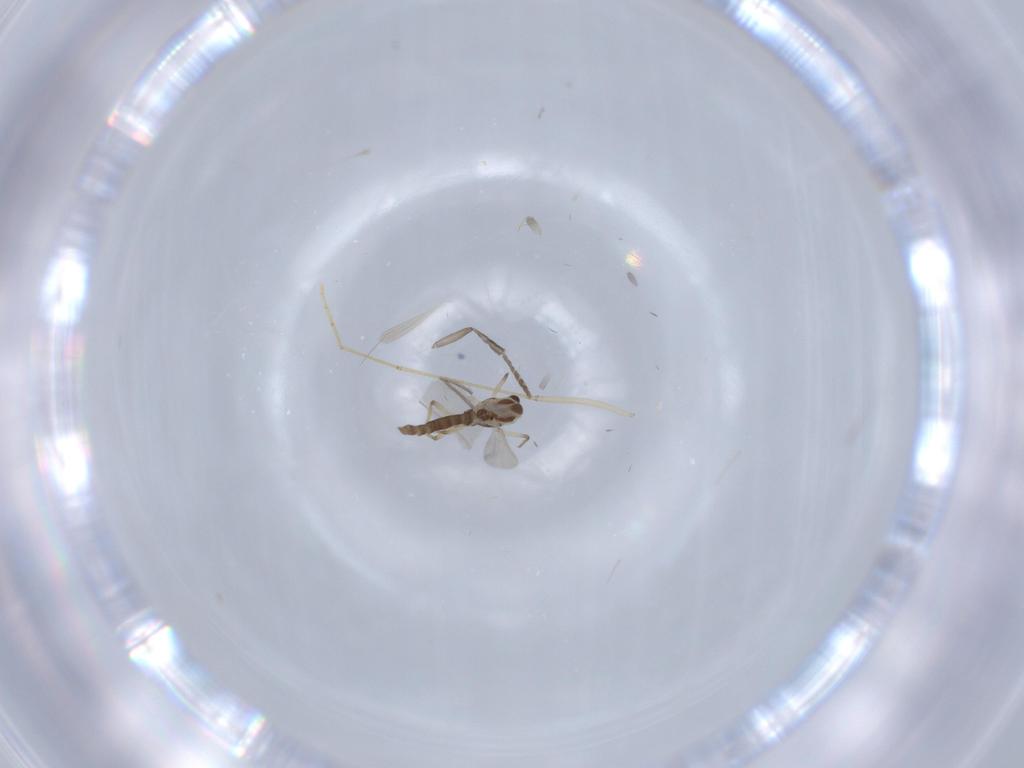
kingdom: Animalia
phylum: Arthropoda
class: Insecta
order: Diptera
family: Chironomidae
